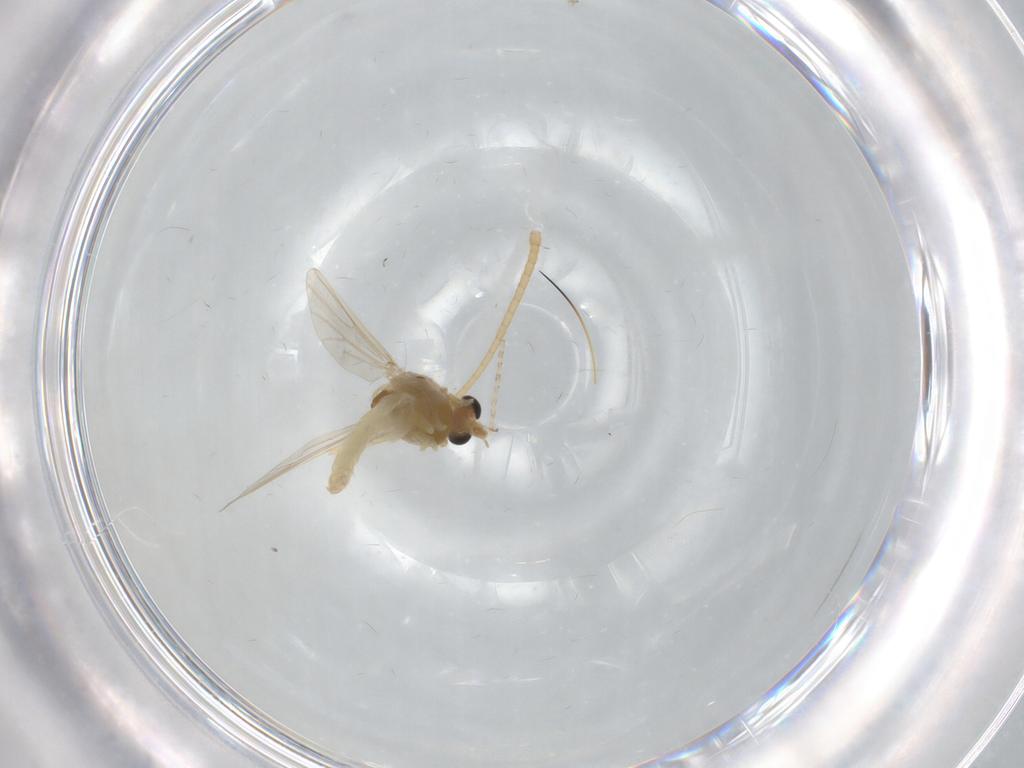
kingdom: Animalia
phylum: Arthropoda
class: Insecta
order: Diptera
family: Chironomidae
